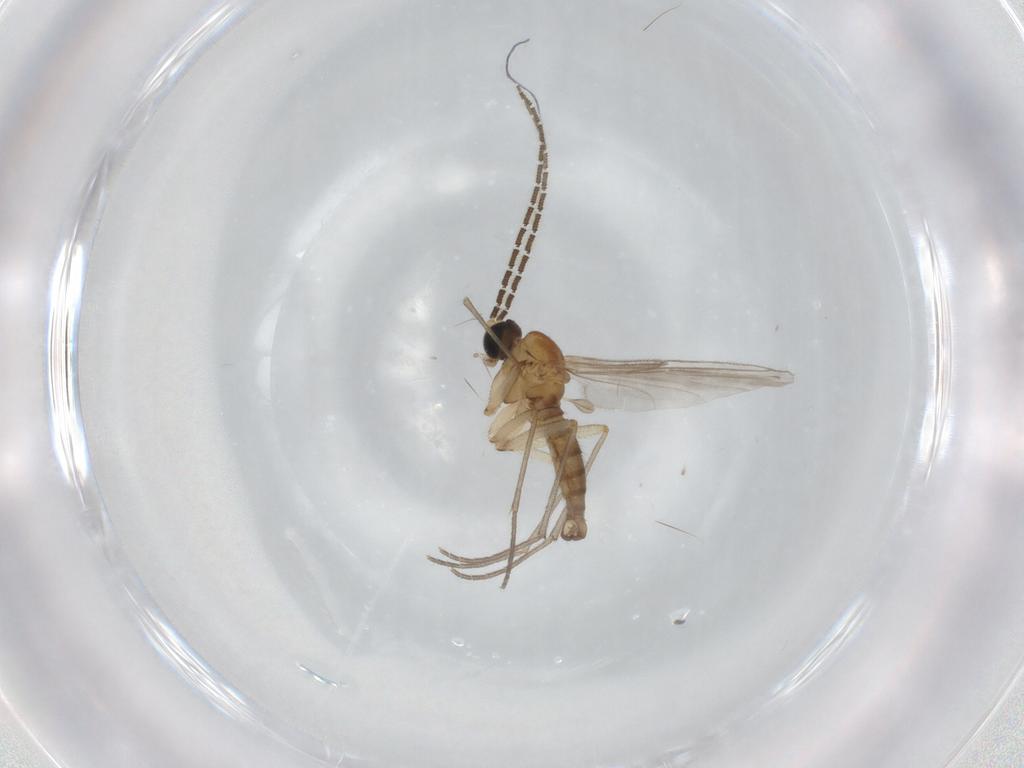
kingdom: Animalia
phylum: Arthropoda
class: Insecta
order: Diptera
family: Sciaridae
